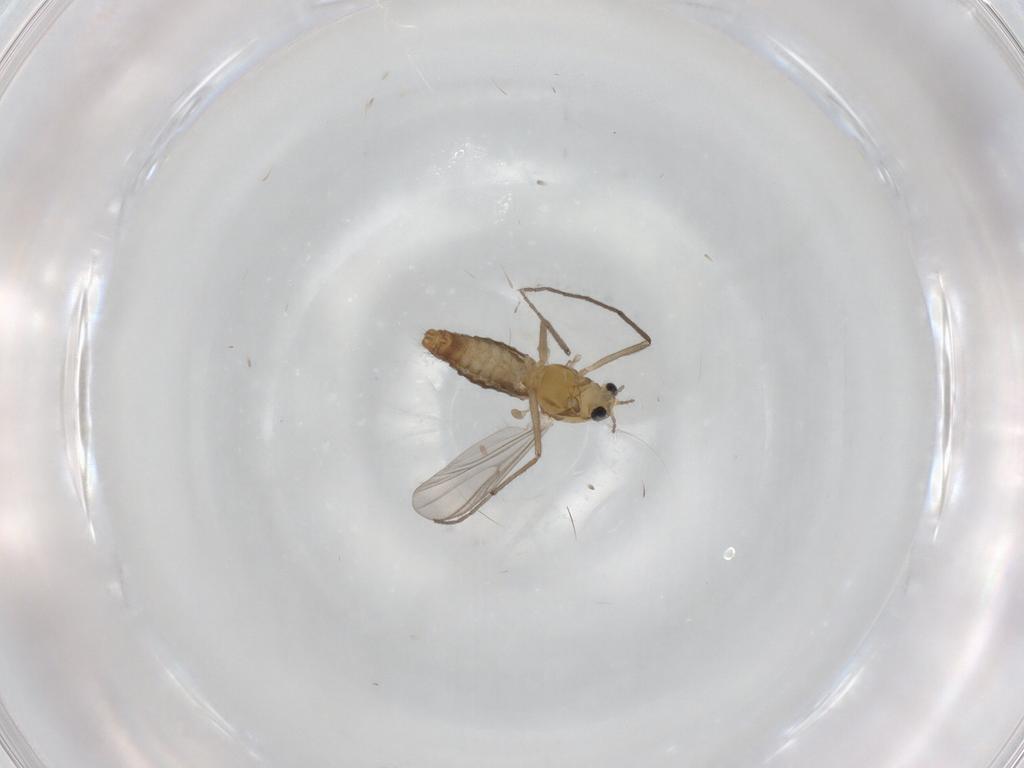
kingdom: Animalia
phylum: Arthropoda
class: Insecta
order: Diptera
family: Chironomidae
